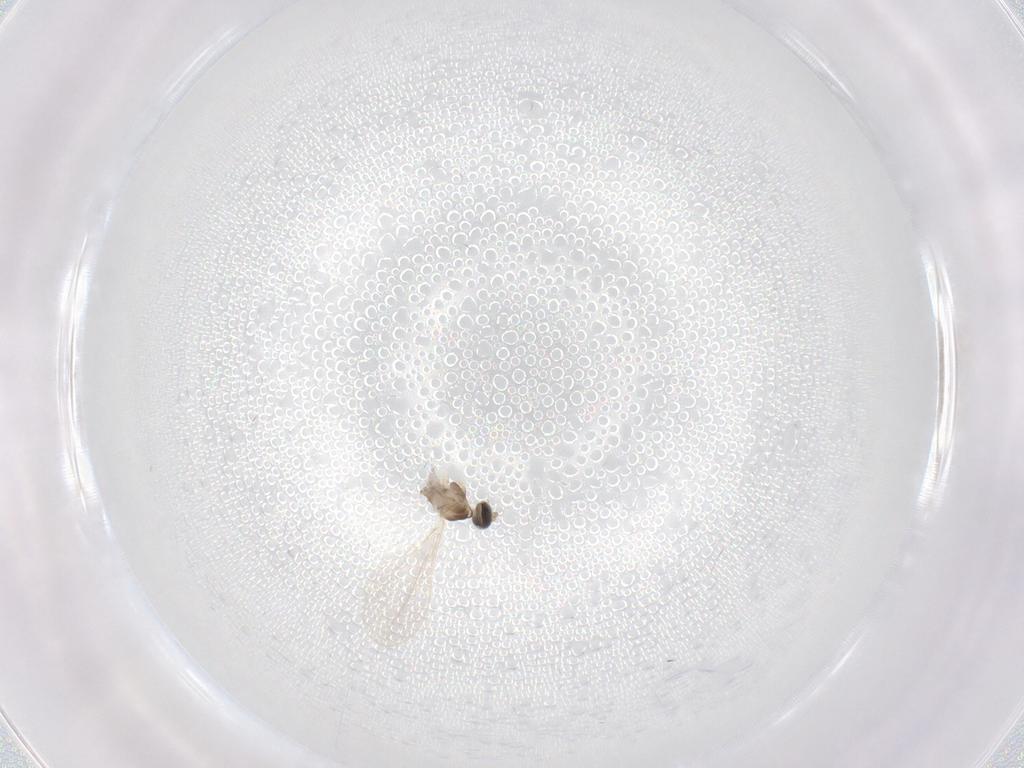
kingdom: Animalia
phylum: Arthropoda
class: Insecta
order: Diptera
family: Cecidomyiidae
